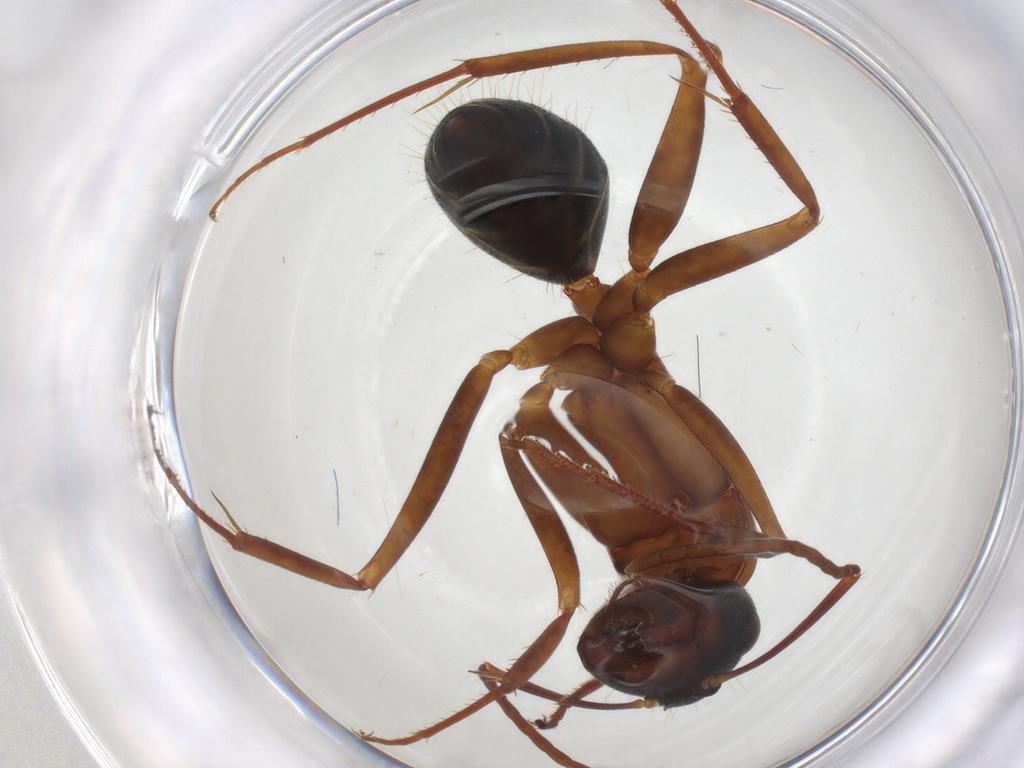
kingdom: Animalia
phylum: Arthropoda
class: Insecta
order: Hymenoptera
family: Formicidae
